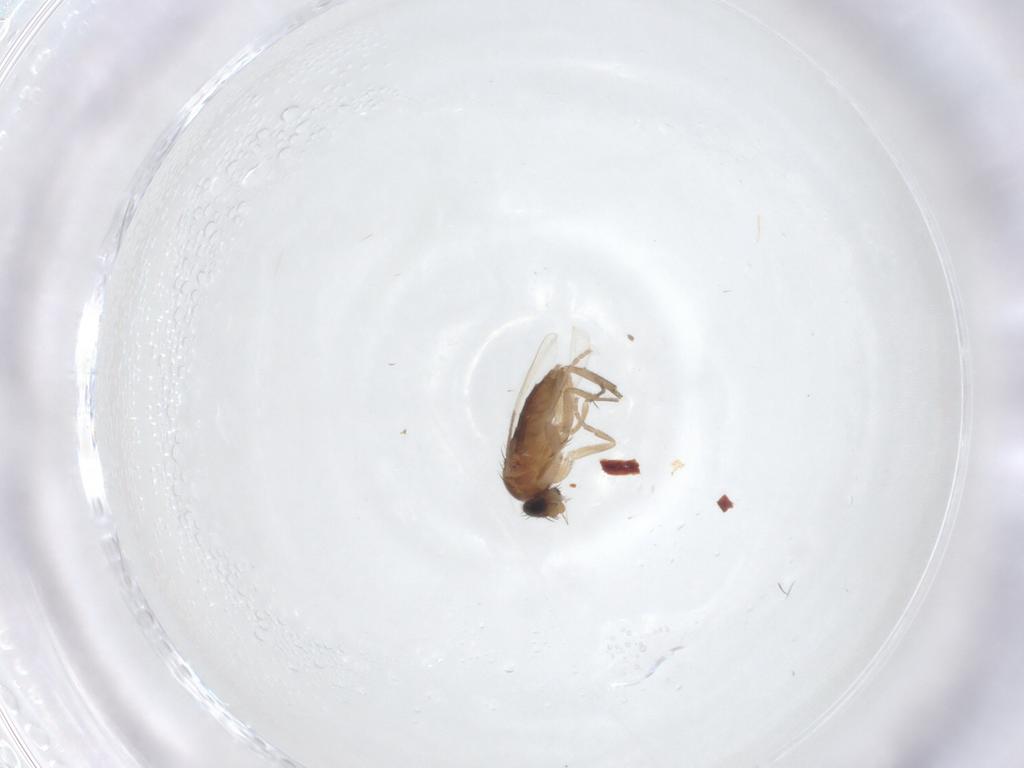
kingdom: Animalia
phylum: Arthropoda
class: Insecta
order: Diptera
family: Phoridae
